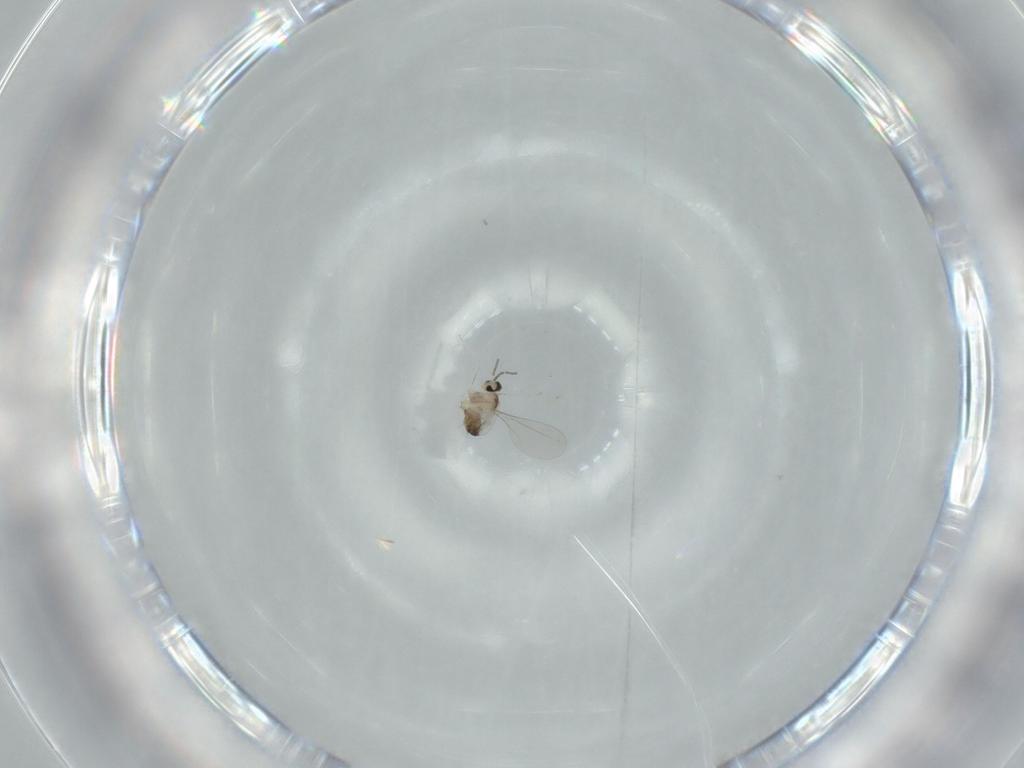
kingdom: Animalia
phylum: Arthropoda
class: Insecta
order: Diptera
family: Cecidomyiidae
